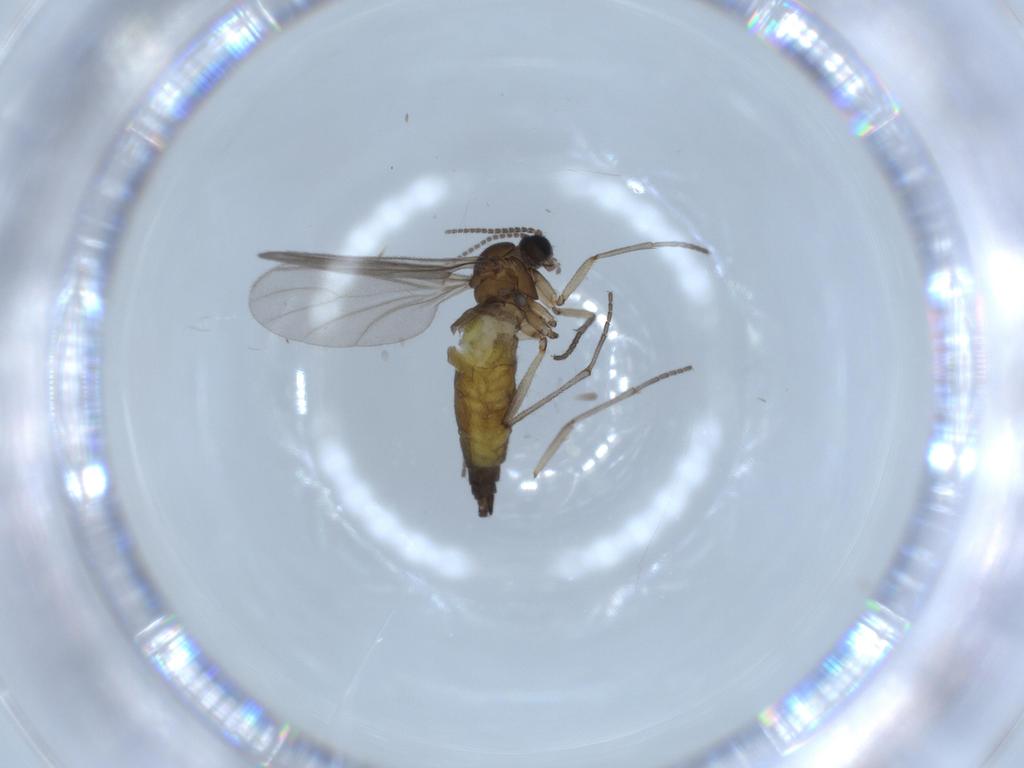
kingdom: Animalia
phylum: Arthropoda
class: Insecta
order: Diptera
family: Sciaridae
